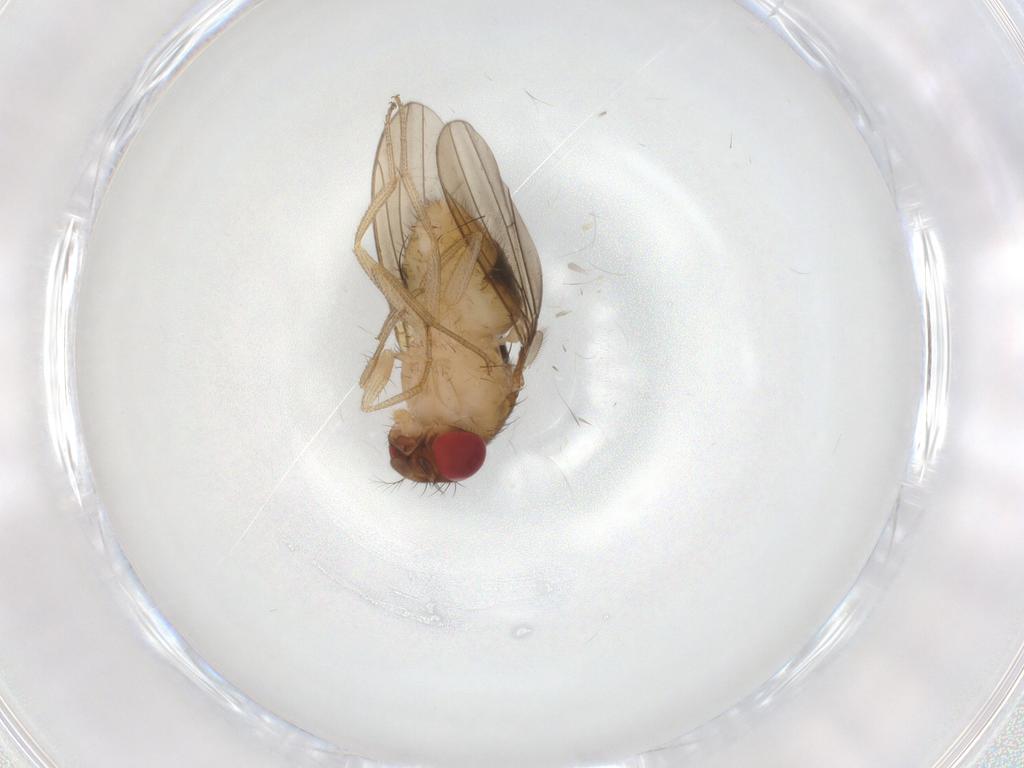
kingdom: Animalia
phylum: Arthropoda
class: Insecta
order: Diptera
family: Drosophilidae
